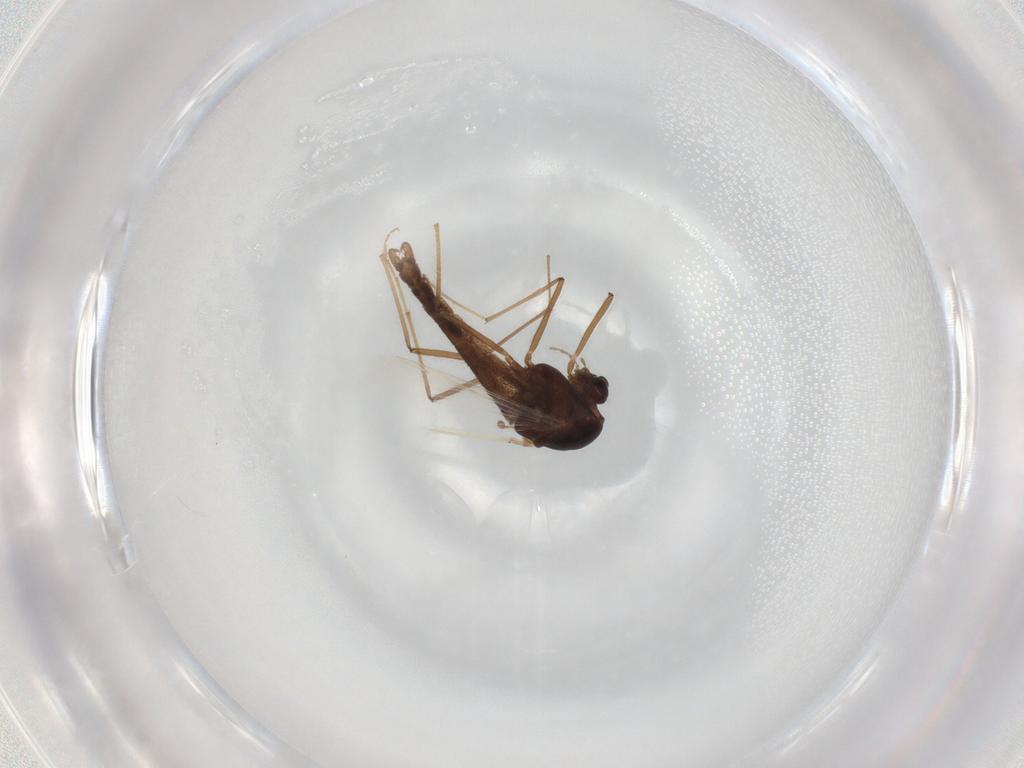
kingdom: Animalia
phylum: Arthropoda
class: Insecta
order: Diptera
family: Chironomidae
